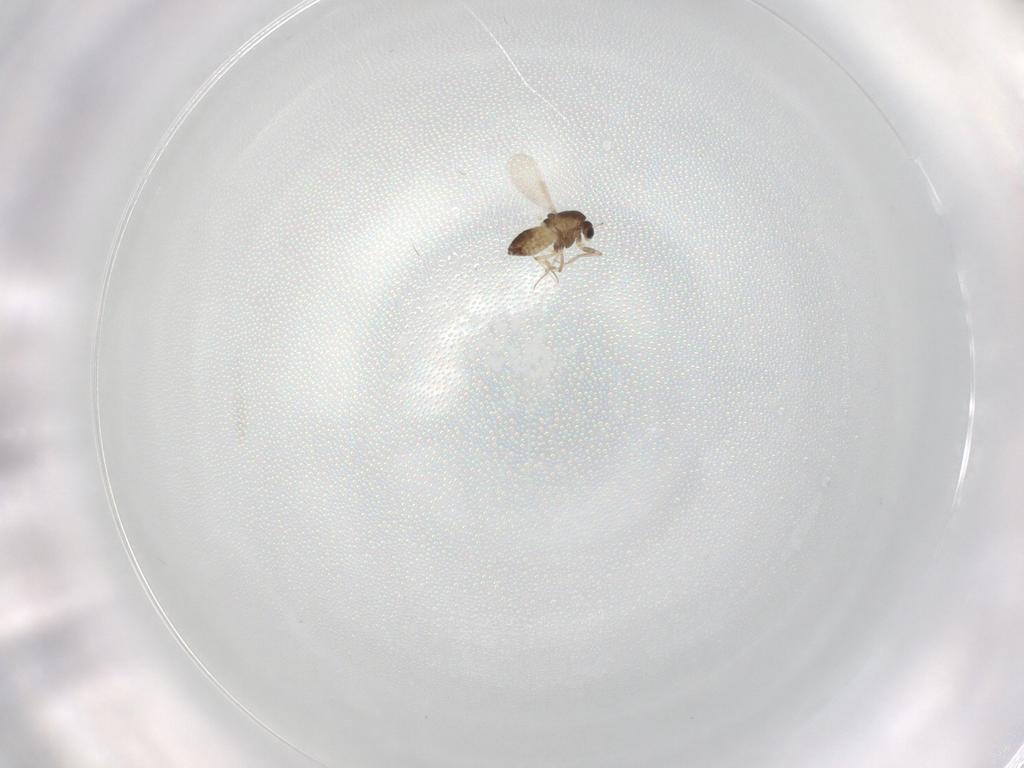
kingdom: Animalia
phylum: Arthropoda
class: Insecta
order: Diptera
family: Chironomidae
